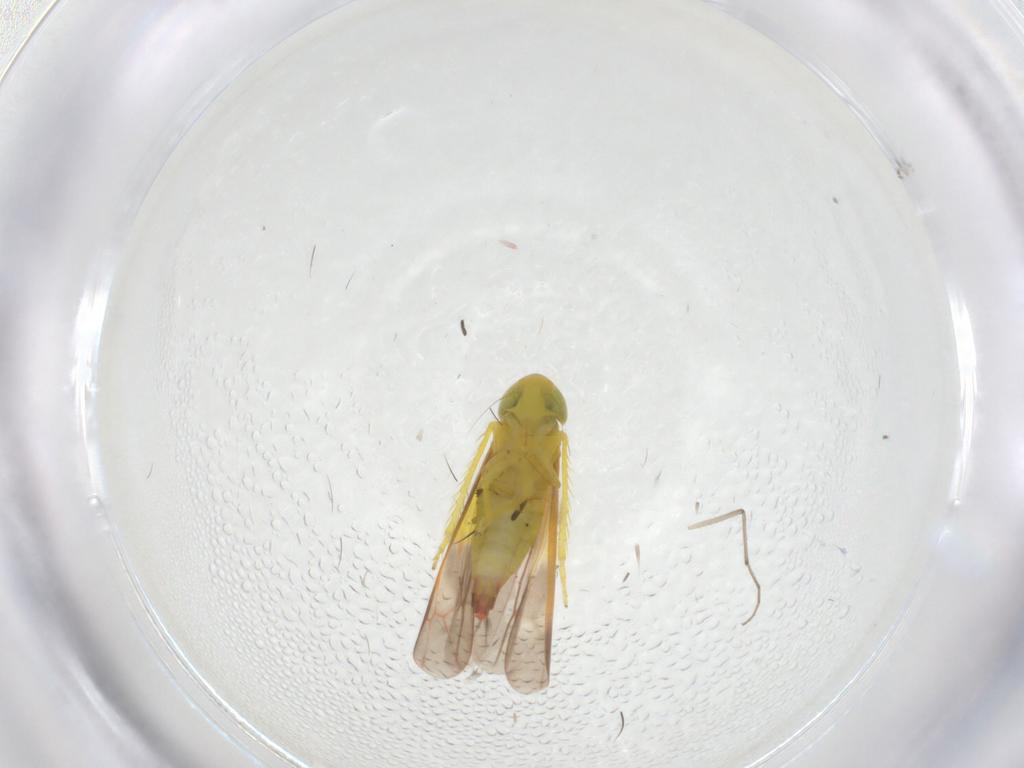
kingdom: Animalia
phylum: Arthropoda
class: Insecta
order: Hemiptera
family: Cicadellidae
